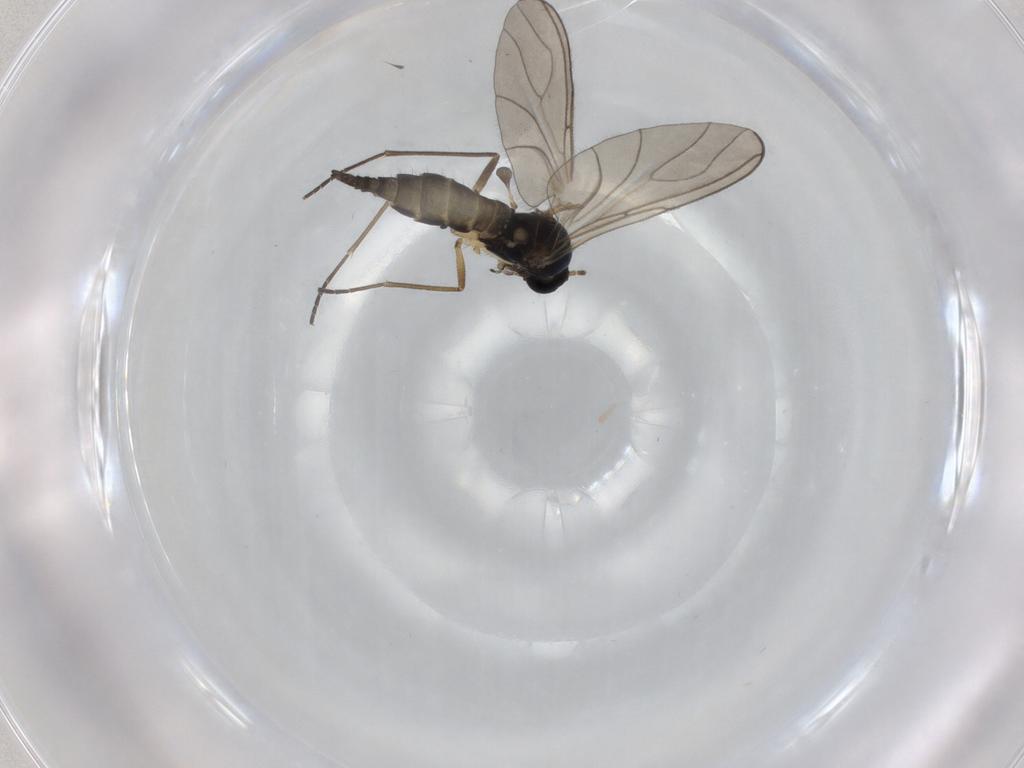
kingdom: Animalia
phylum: Arthropoda
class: Insecta
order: Diptera
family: Sciaridae
